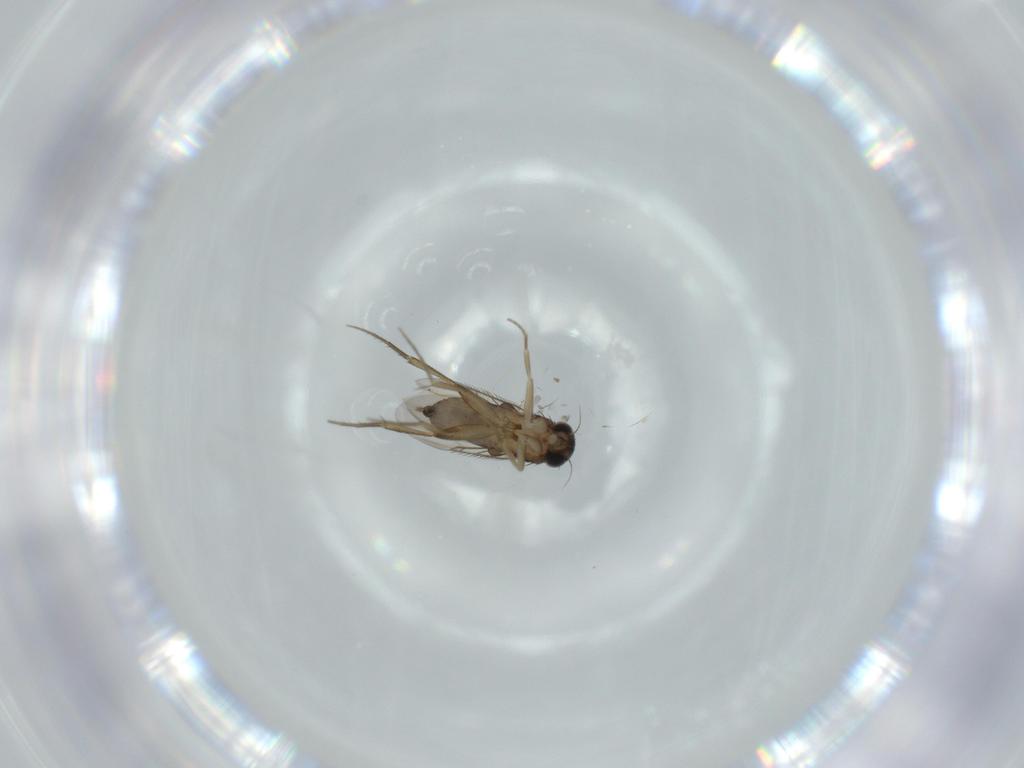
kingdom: Animalia
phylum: Arthropoda
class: Insecta
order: Diptera
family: Phoridae
